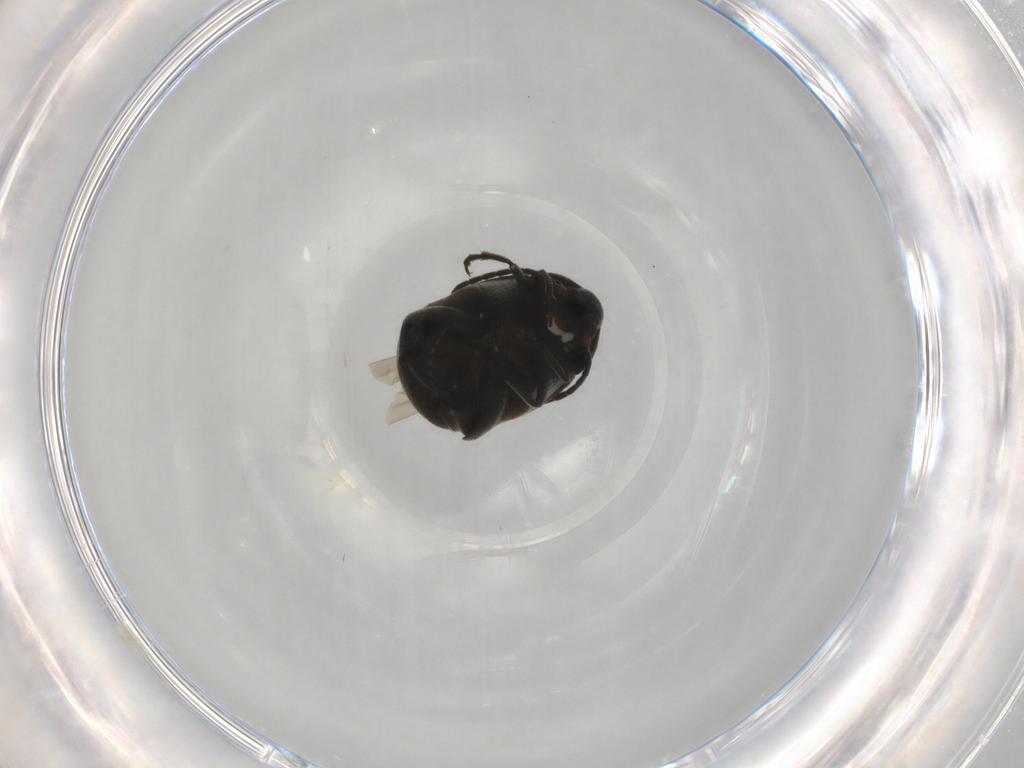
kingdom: Animalia
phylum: Arthropoda
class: Insecta
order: Coleoptera
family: Chrysomelidae
